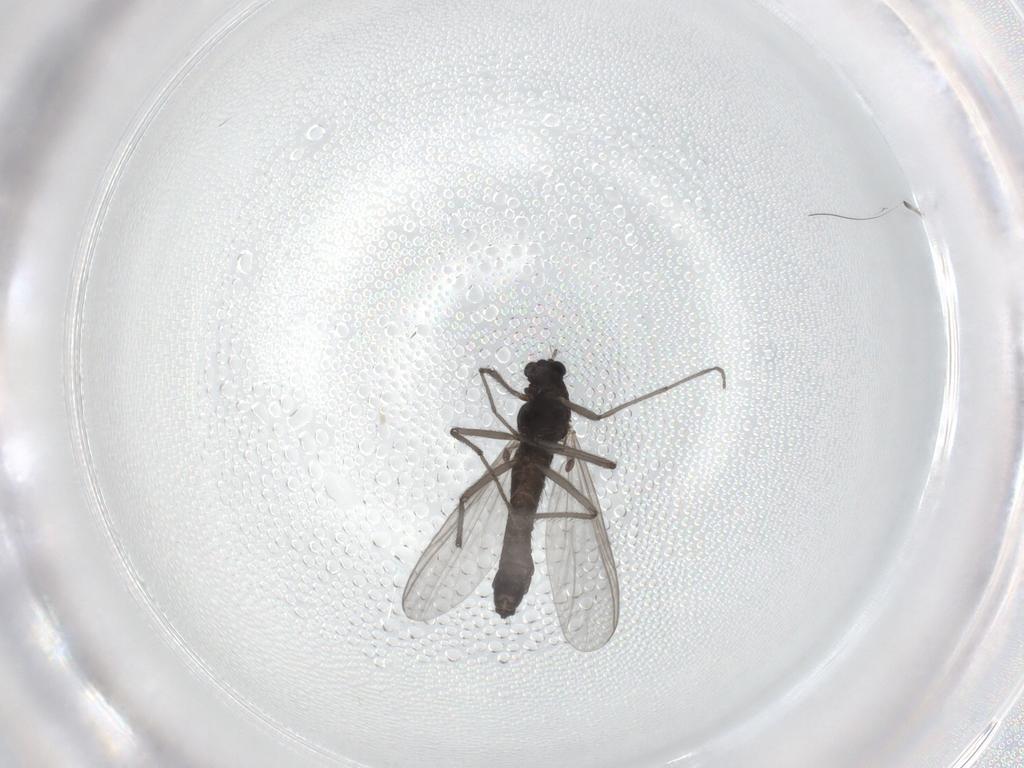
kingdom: Animalia
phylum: Arthropoda
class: Insecta
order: Diptera
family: Chironomidae
